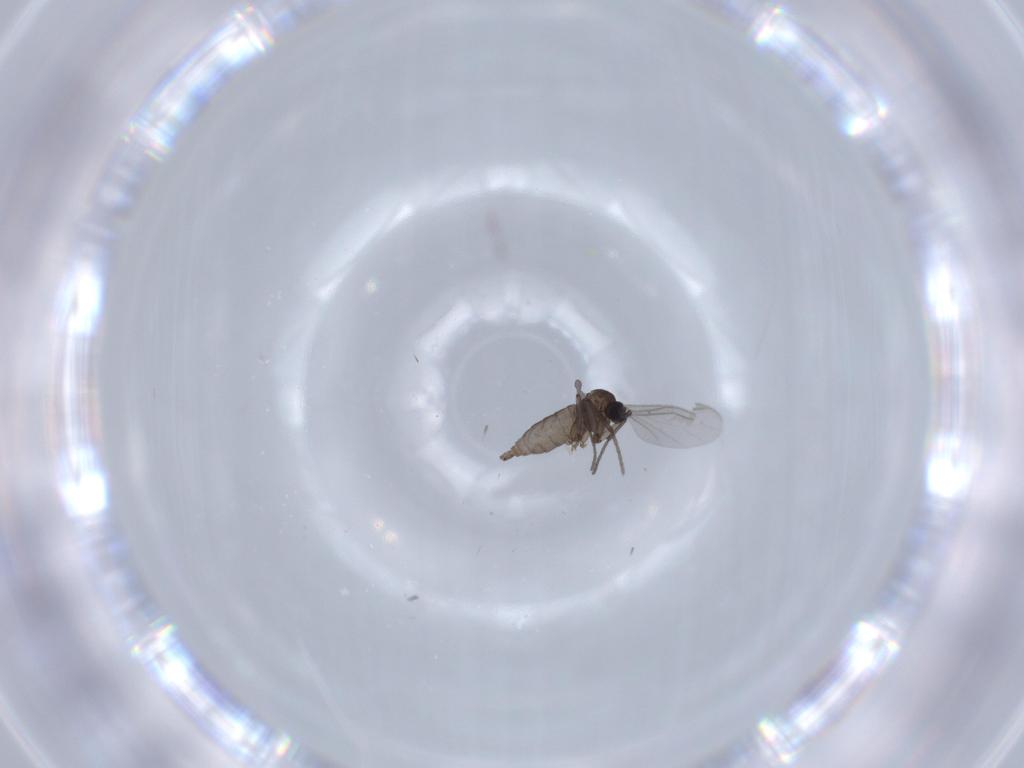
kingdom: Animalia
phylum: Arthropoda
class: Insecta
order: Diptera
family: Sciaridae
